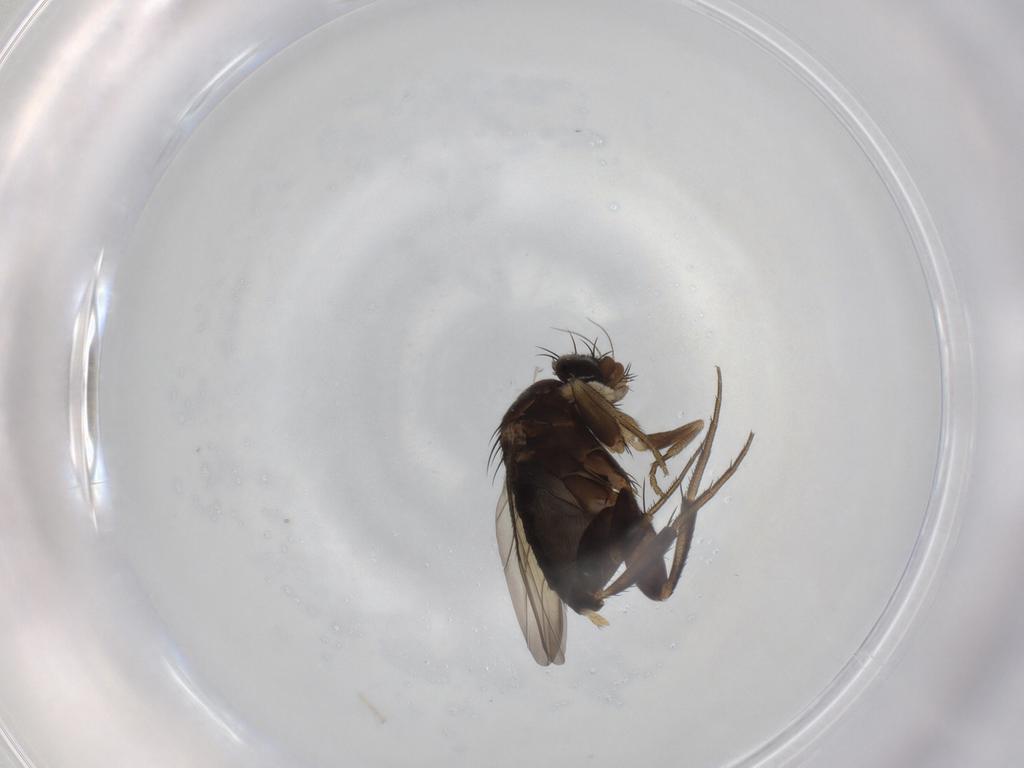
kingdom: Animalia
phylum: Arthropoda
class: Insecta
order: Diptera
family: Phoridae
